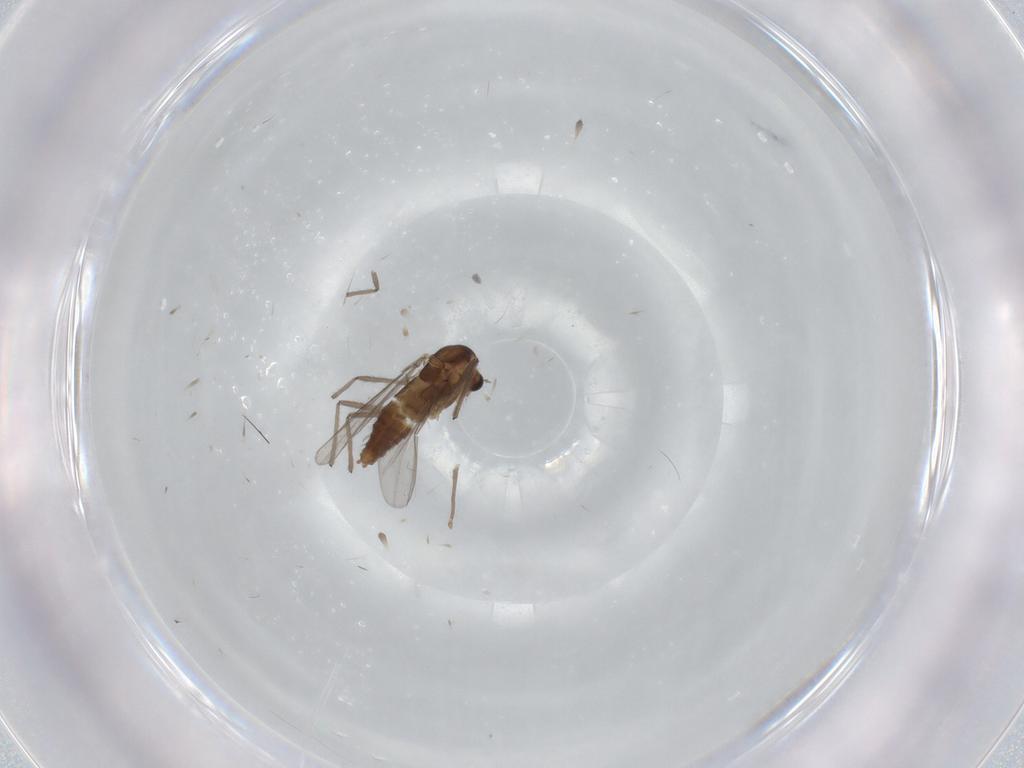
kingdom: Animalia
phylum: Arthropoda
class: Insecta
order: Diptera
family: Chironomidae
